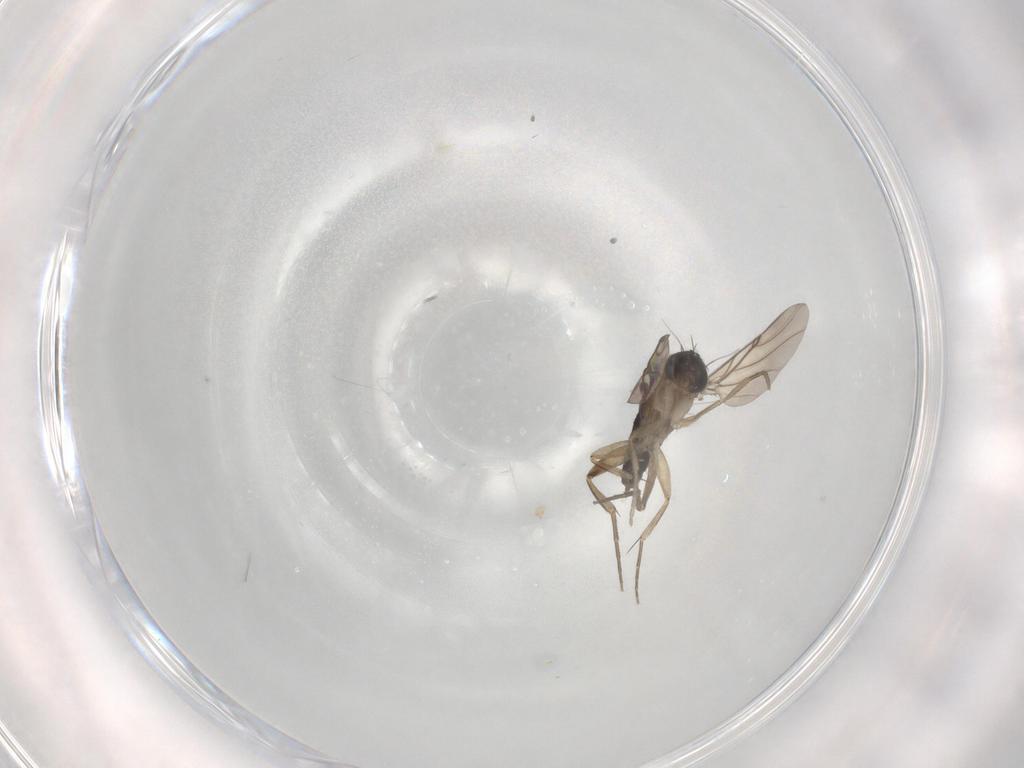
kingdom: Animalia
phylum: Arthropoda
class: Insecta
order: Diptera
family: Phoridae
